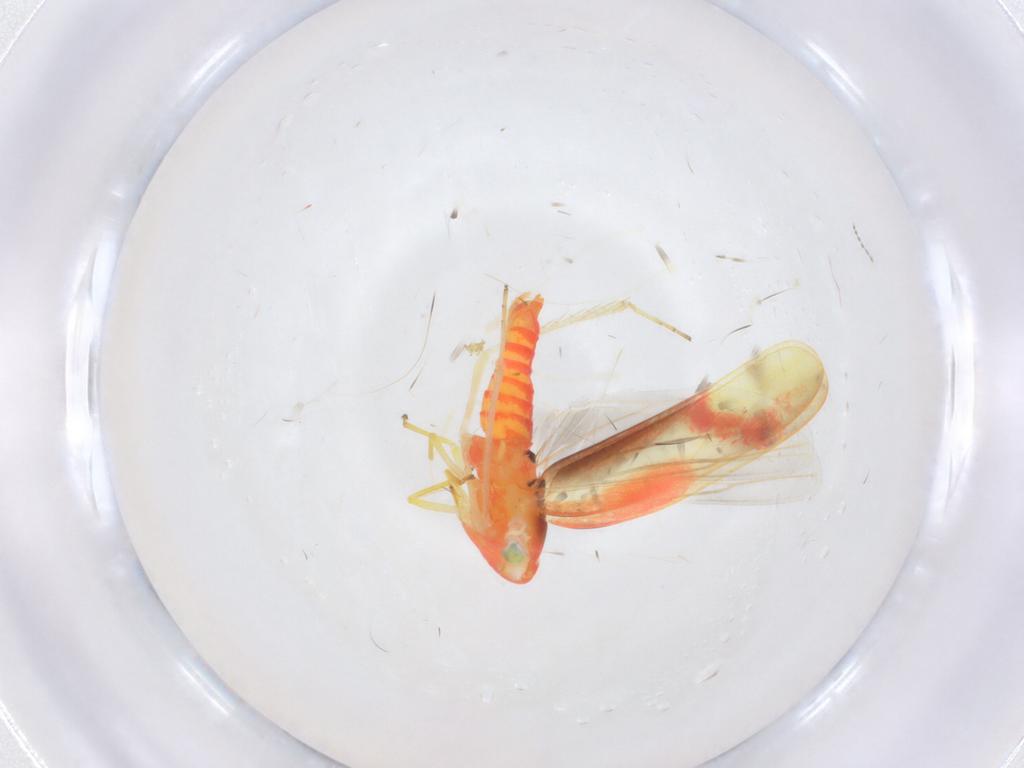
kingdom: Animalia
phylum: Arthropoda
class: Insecta
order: Hemiptera
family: Cicadellidae
